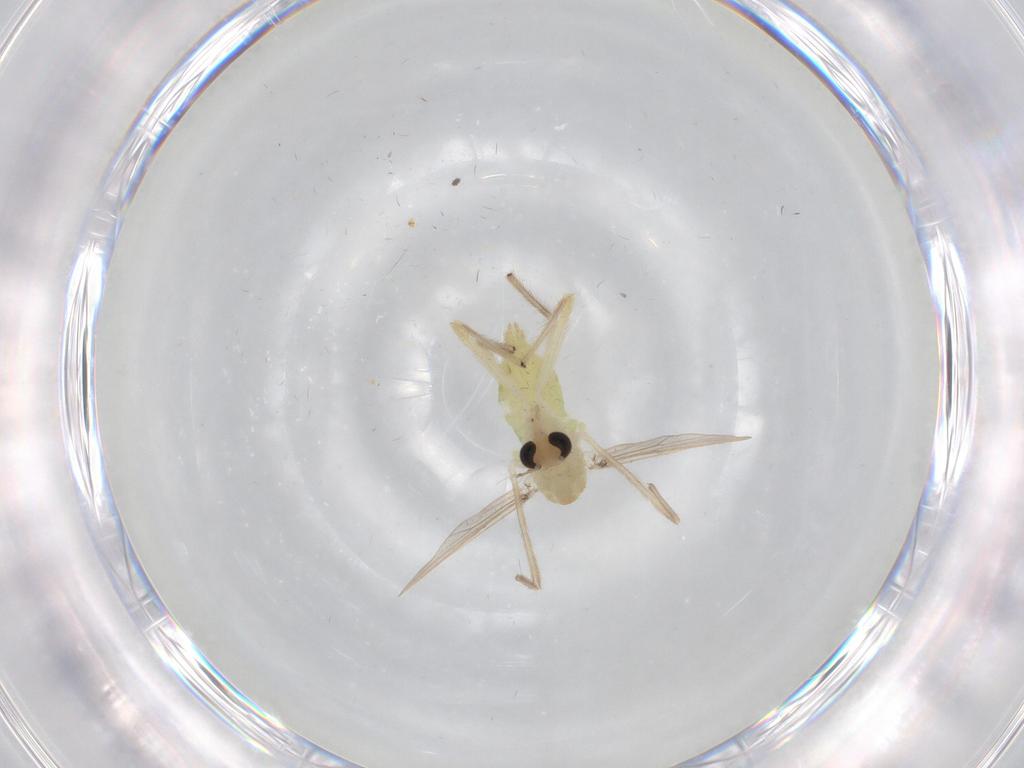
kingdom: Animalia
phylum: Arthropoda
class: Insecta
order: Diptera
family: Chironomidae
